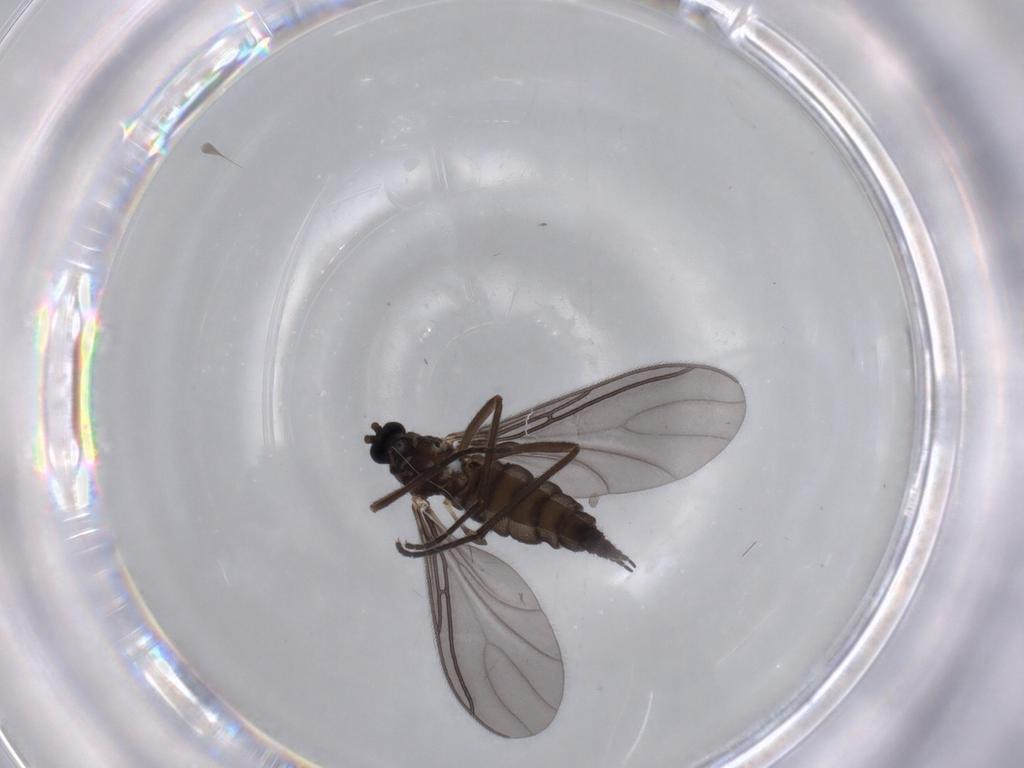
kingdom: Animalia
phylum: Arthropoda
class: Insecta
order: Diptera
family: Sciaridae
